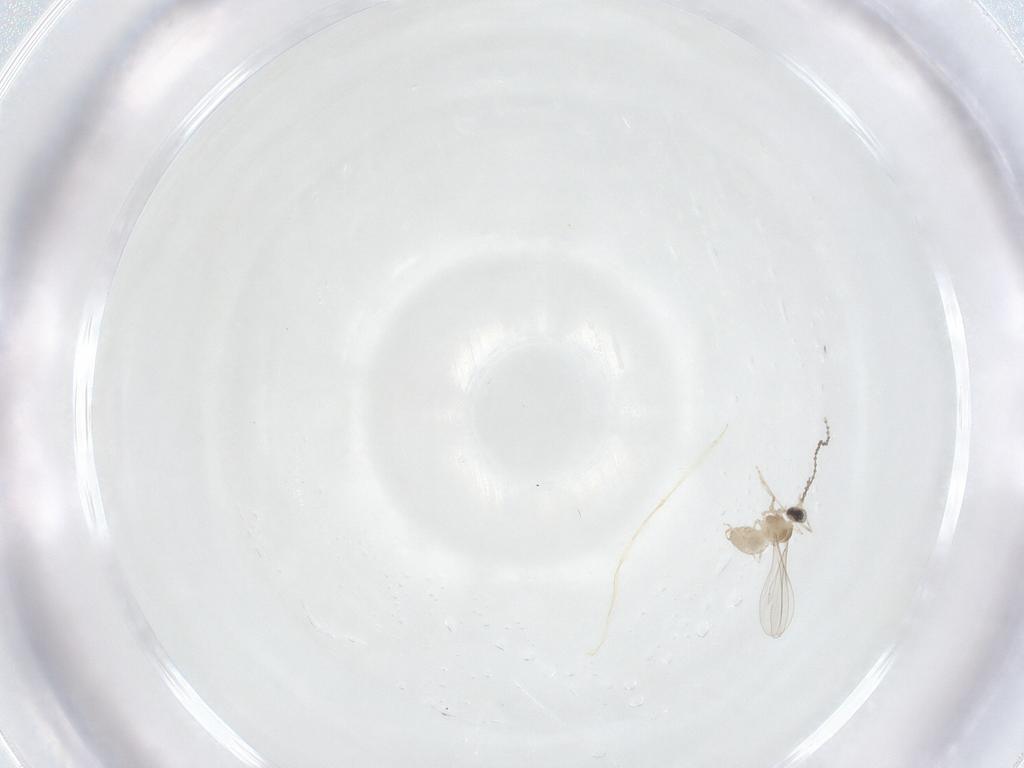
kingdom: Animalia
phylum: Arthropoda
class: Insecta
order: Diptera
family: Cecidomyiidae
